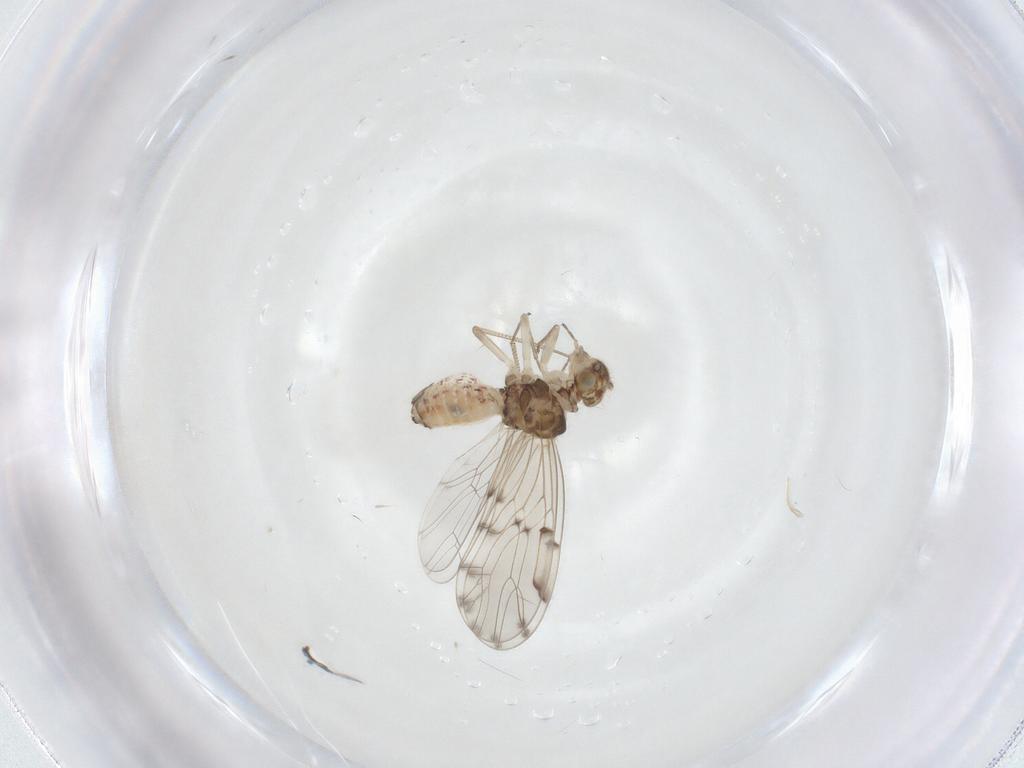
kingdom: Animalia
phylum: Arthropoda
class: Insecta
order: Psocodea
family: Ectopsocidae
